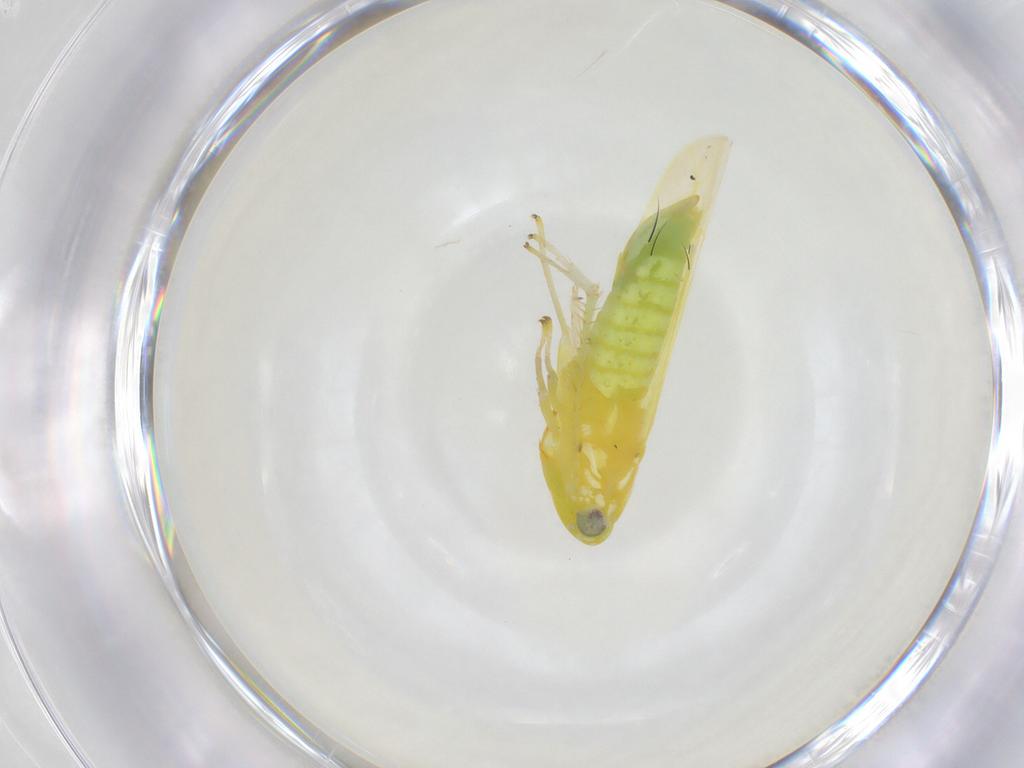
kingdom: Animalia
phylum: Arthropoda
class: Insecta
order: Hemiptera
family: Cicadellidae
